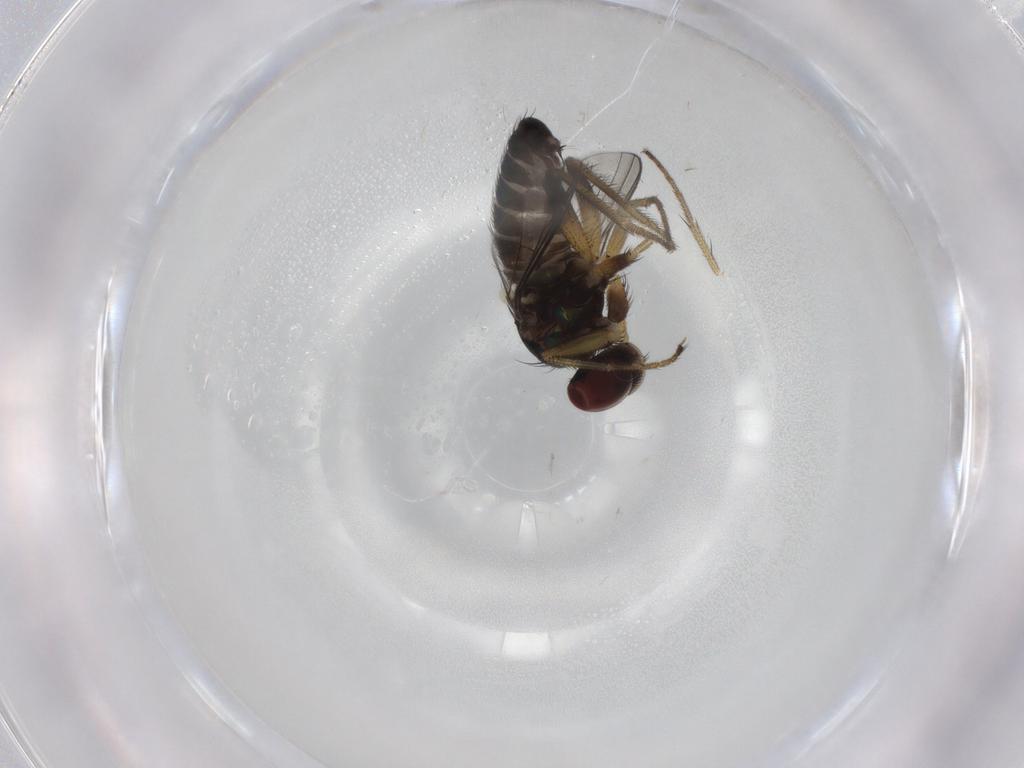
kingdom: Animalia
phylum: Arthropoda
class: Insecta
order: Diptera
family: Dolichopodidae
